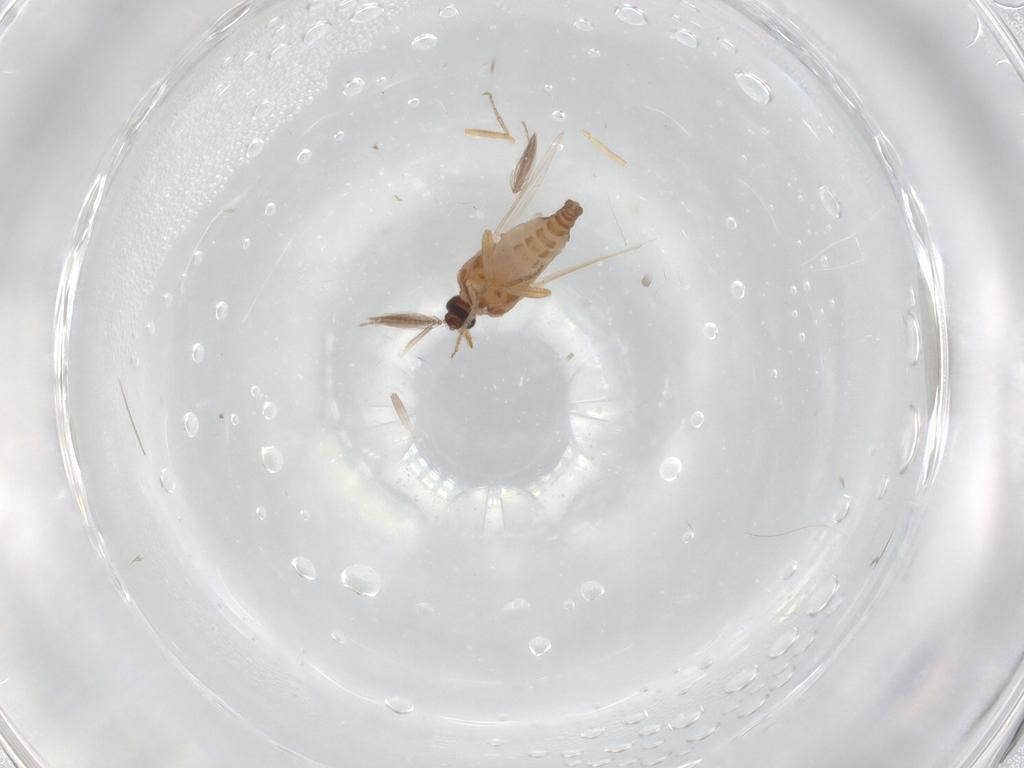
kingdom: Animalia
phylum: Arthropoda
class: Insecta
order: Diptera
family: Ceratopogonidae
